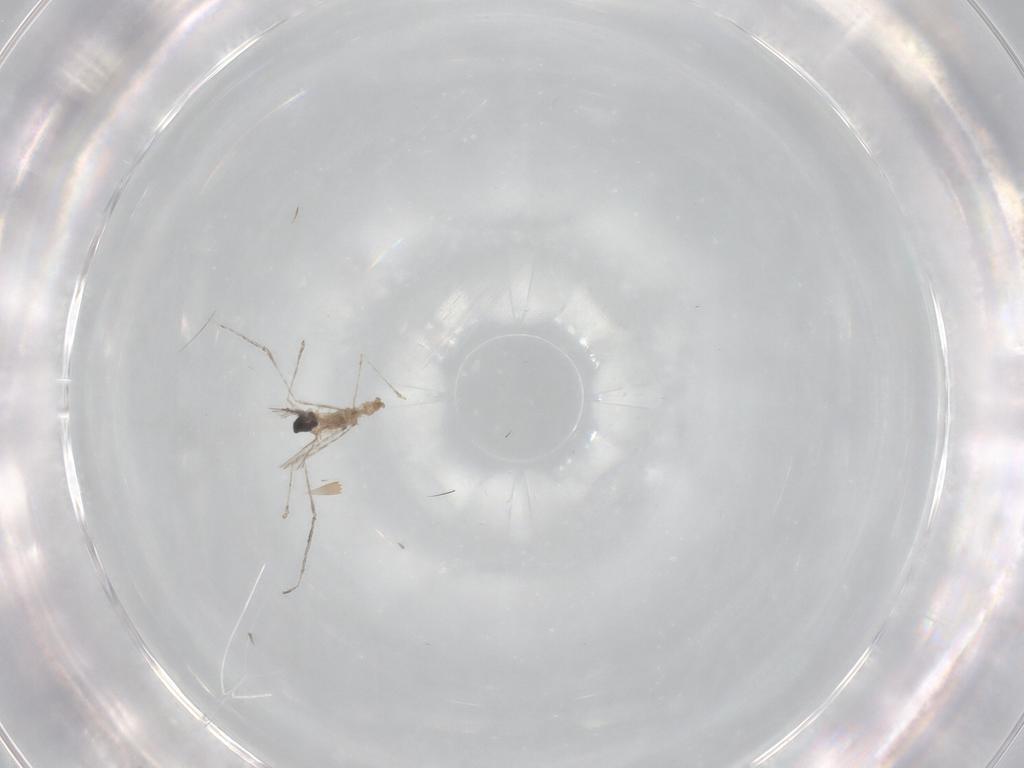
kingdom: Animalia
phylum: Arthropoda
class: Insecta
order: Diptera
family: Cecidomyiidae
